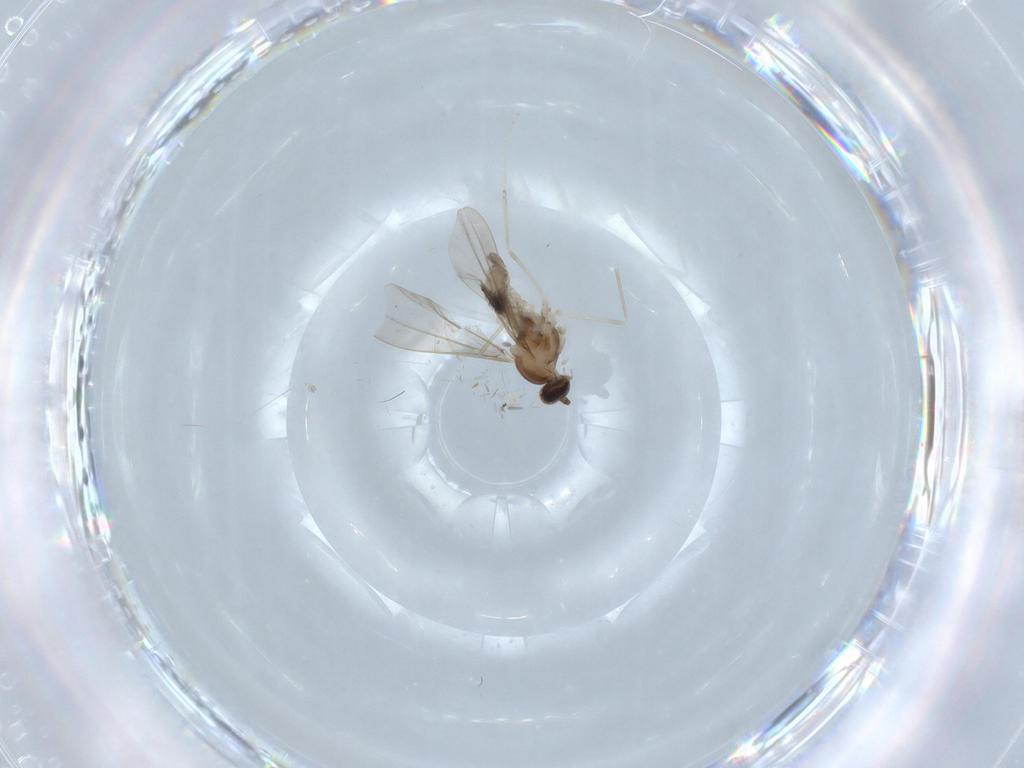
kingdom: Animalia
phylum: Arthropoda
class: Insecta
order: Diptera
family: Cecidomyiidae
